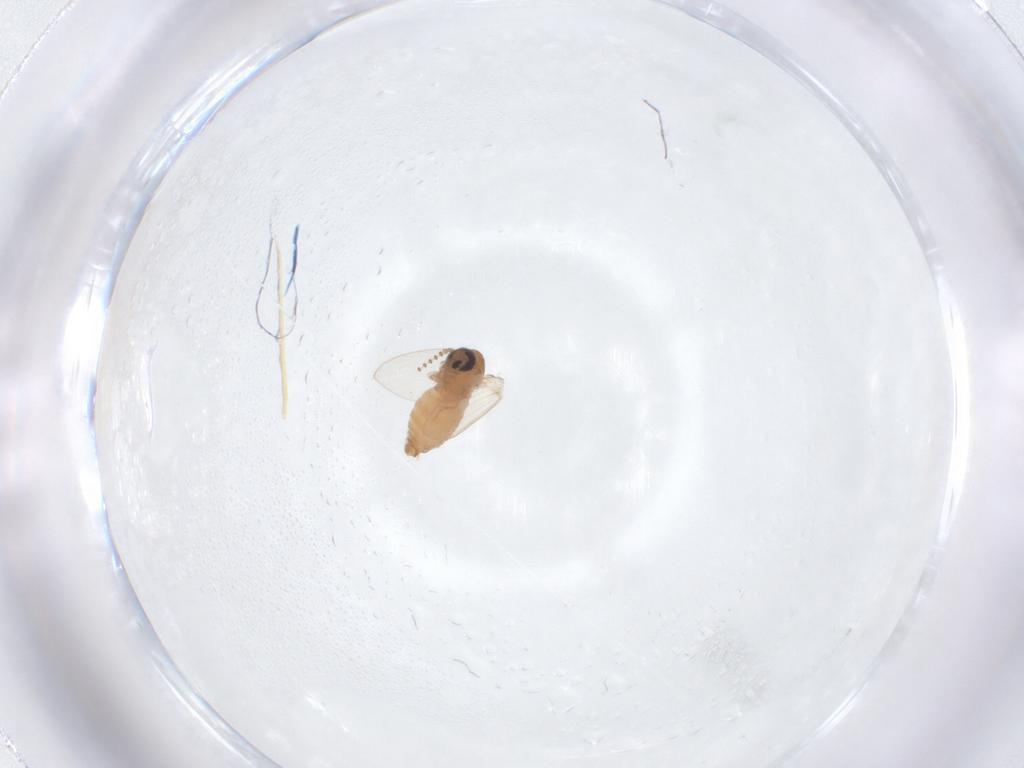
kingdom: Animalia
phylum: Arthropoda
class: Insecta
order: Diptera
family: Psychodidae
